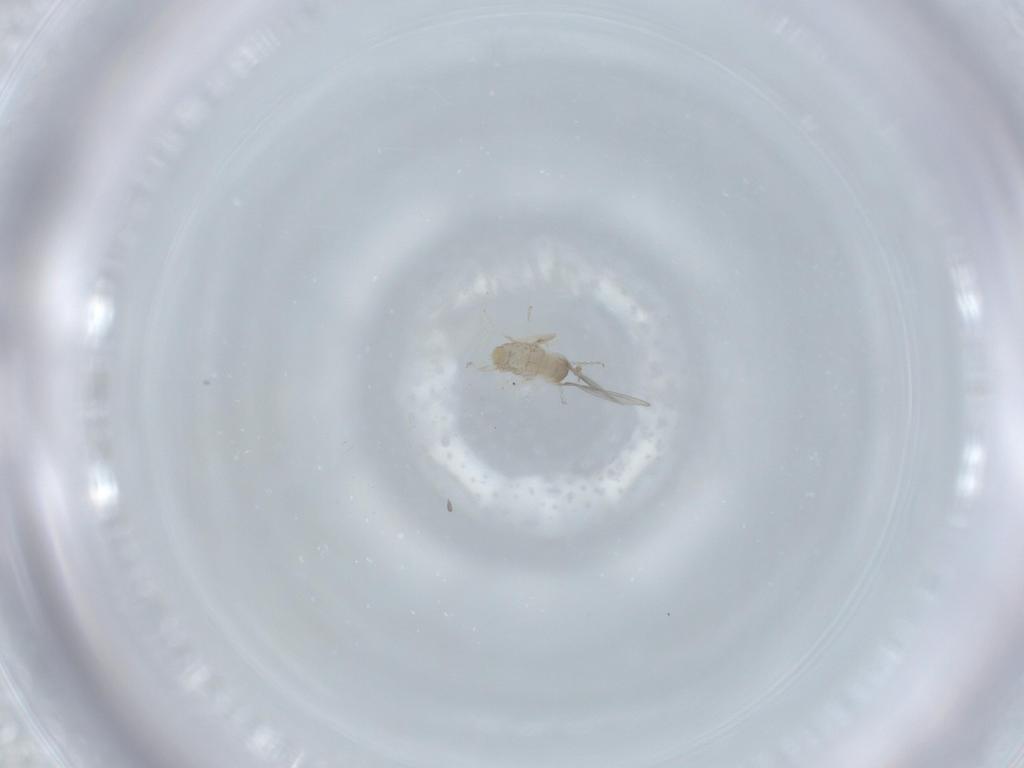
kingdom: Animalia
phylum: Arthropoda
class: Insecta
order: Diptera
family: Cecidomyiidae
